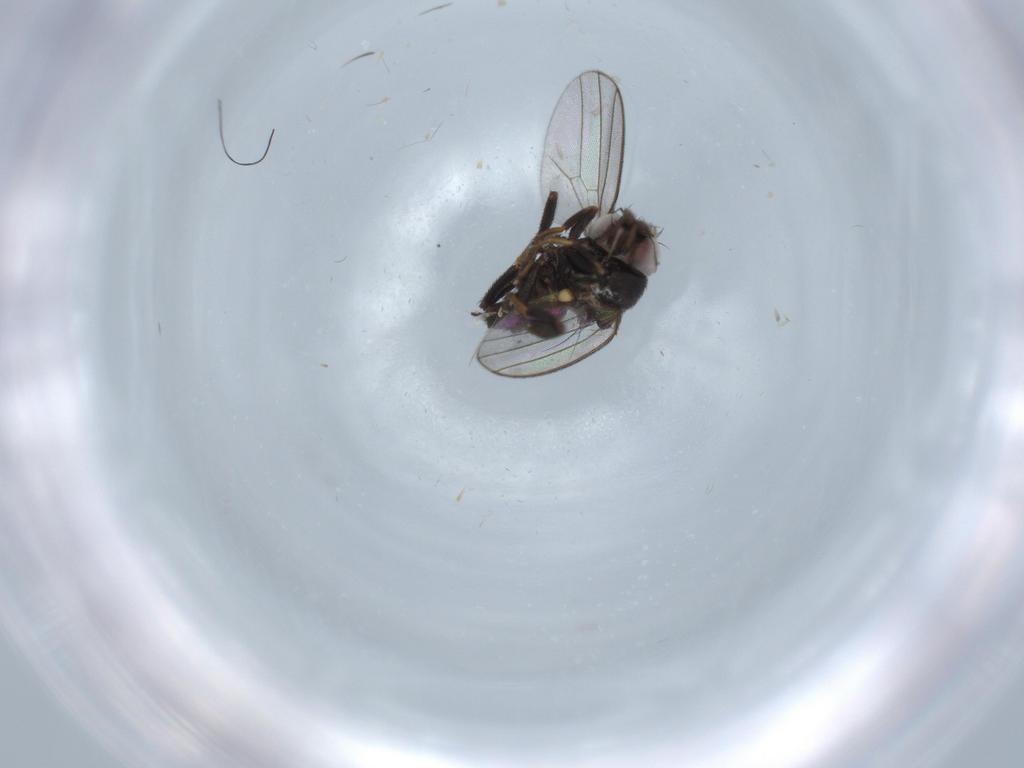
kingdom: Animalia
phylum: Arthropoda
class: Insecta
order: Diptera
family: Milichiidae
